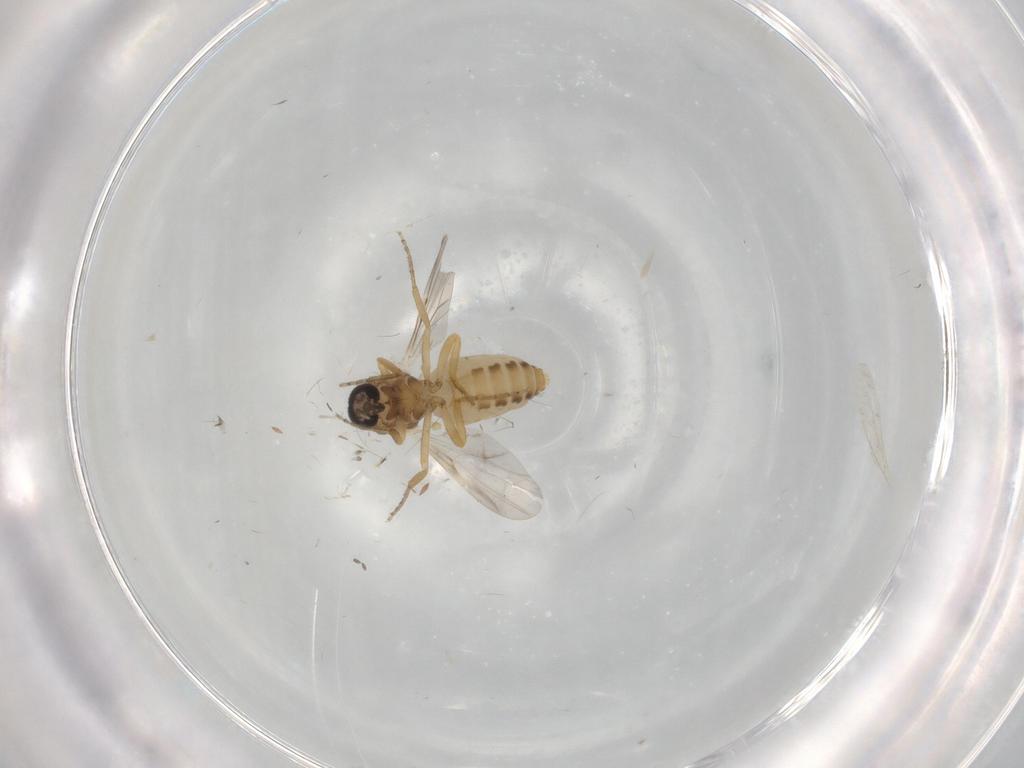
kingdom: Animalia
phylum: Arthropoda
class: Insecta
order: Diptera
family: Ceratopogonidae
